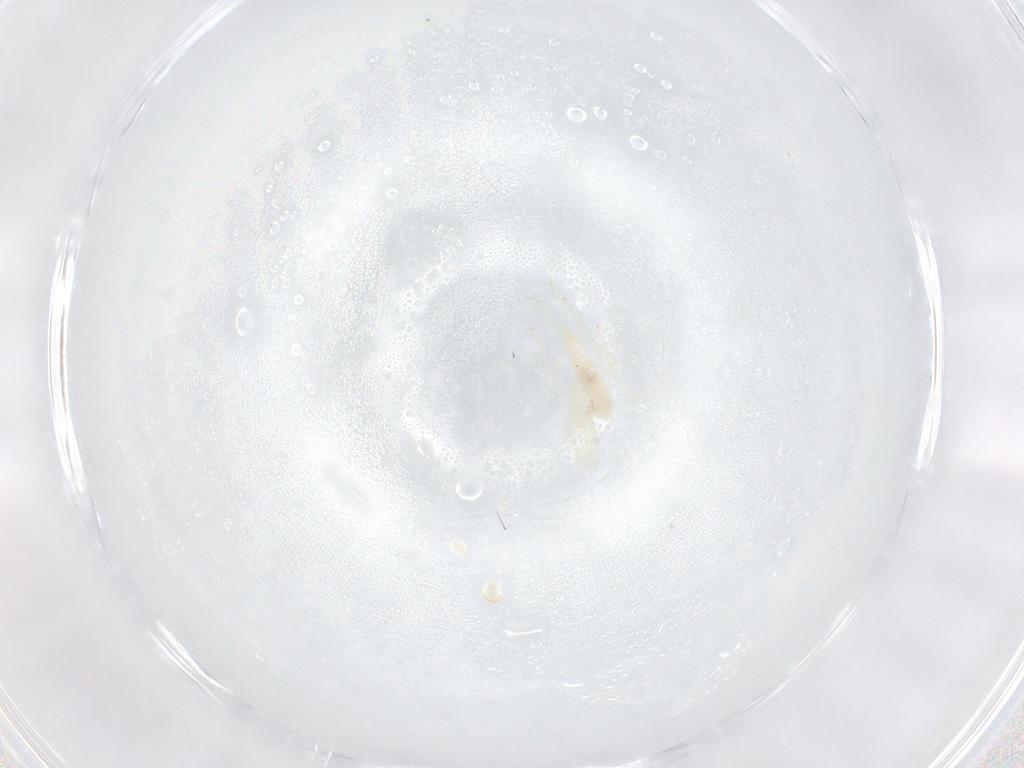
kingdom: Animalia
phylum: Arthropoda
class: Insecta
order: Diptera
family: Cecidomyiidae
